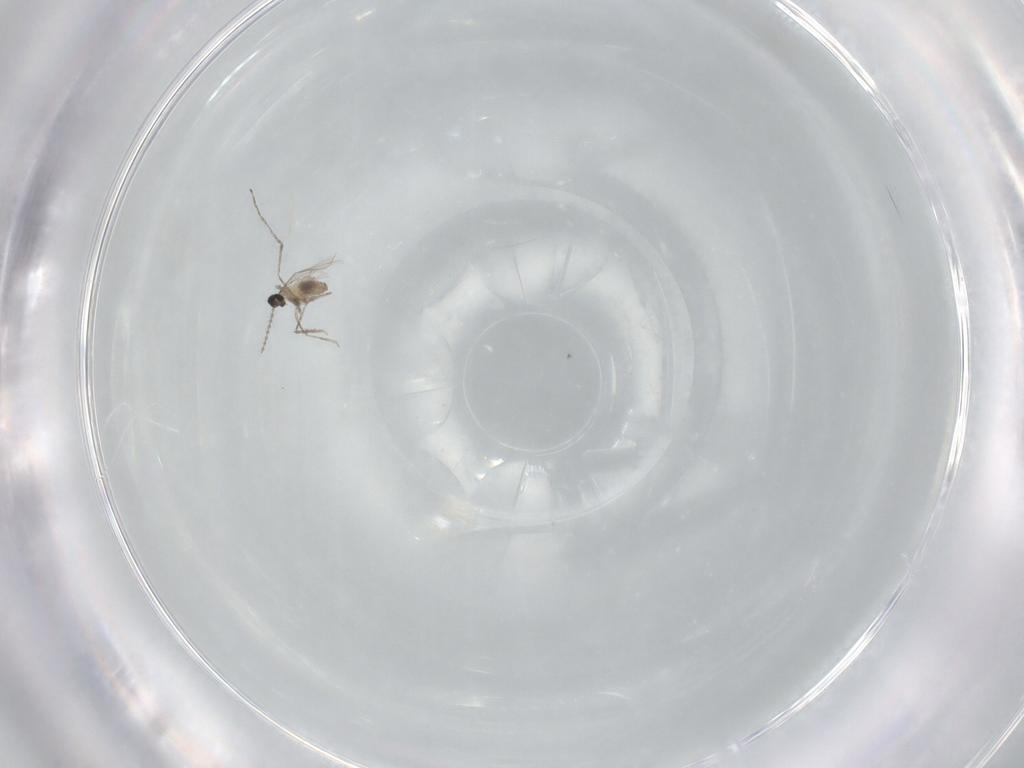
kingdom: Animalia
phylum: Arthropoda
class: Insecta
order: Diptera
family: Cecidomyiidae
